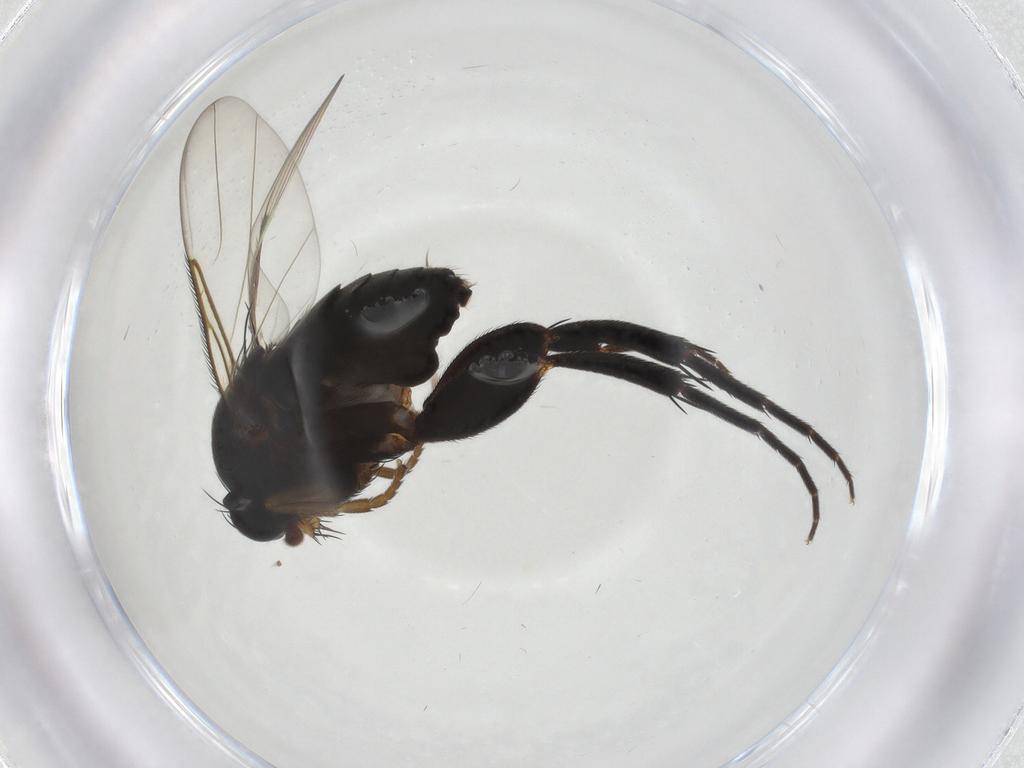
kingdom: Animalia
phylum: Arthropoda
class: Insecta
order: Diptera
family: Phoridae
